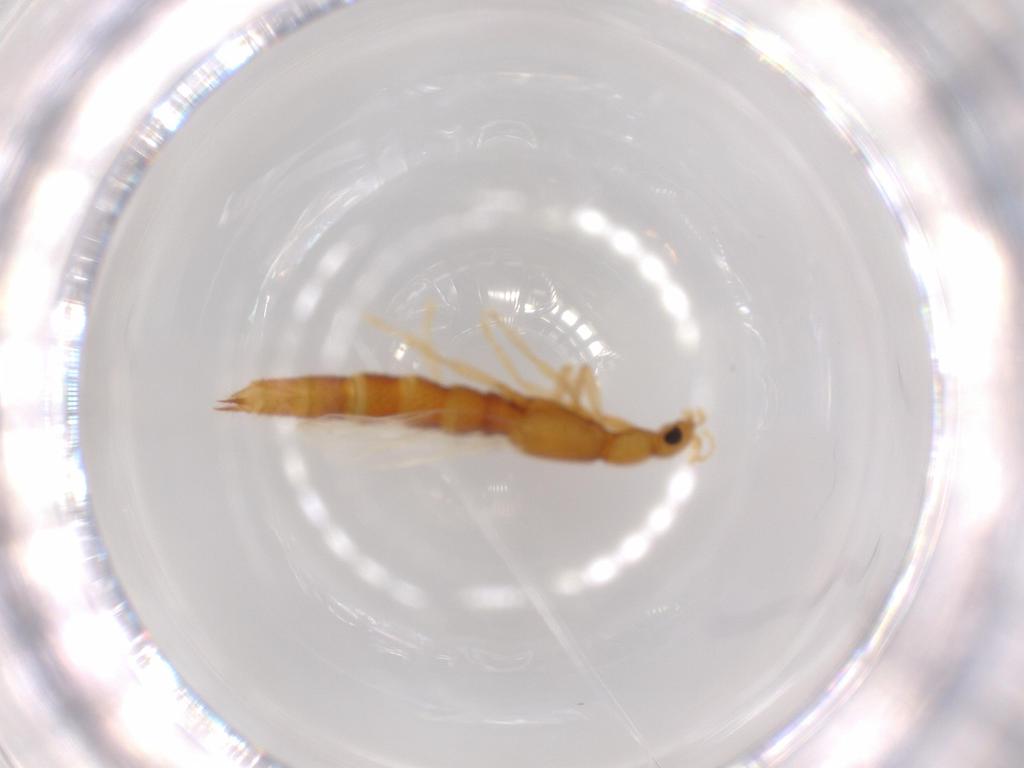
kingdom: Animalia
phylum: Arthropoda
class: Insecta
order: Coleoptera
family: Staphylinidae
